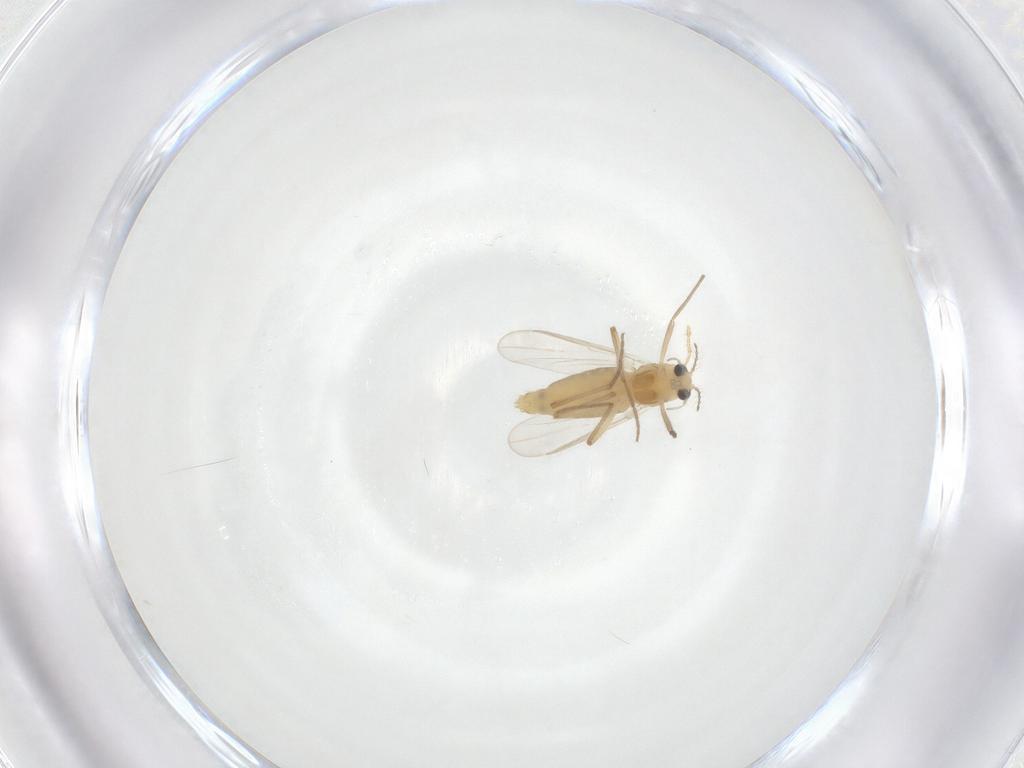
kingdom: Animalia
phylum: Arthropoda
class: Insecta
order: Diptera
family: Chironomidae
